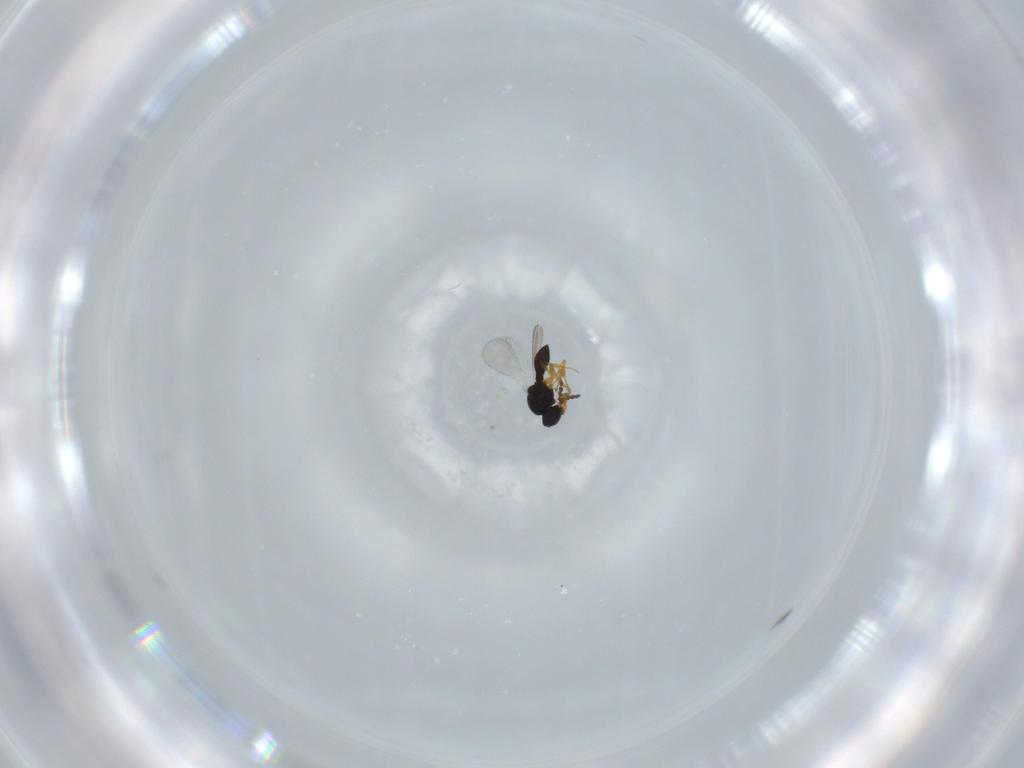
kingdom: Animalia
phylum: Arthropoda
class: Insecta
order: Hymenoptera
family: Platygastridae
